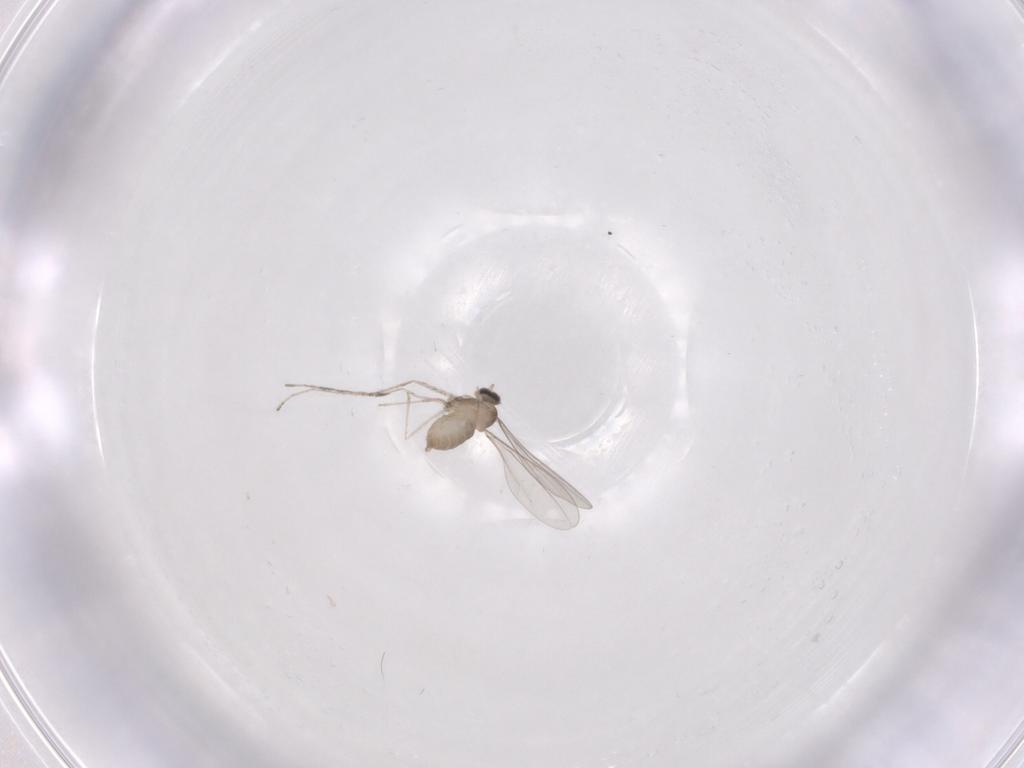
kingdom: Animalia
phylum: Arthropoda
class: Insecta
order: Diptera
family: Cecidomyiidae
